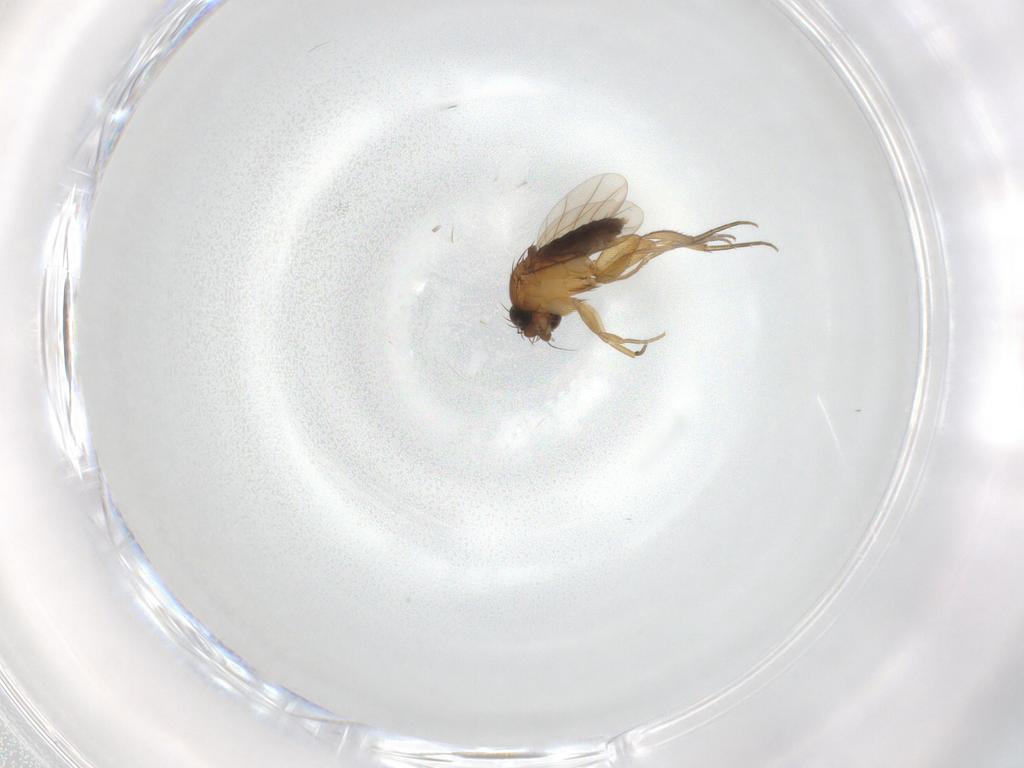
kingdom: Animalia
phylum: Arthropoda
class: Insecta
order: Diptera
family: Phoridae
